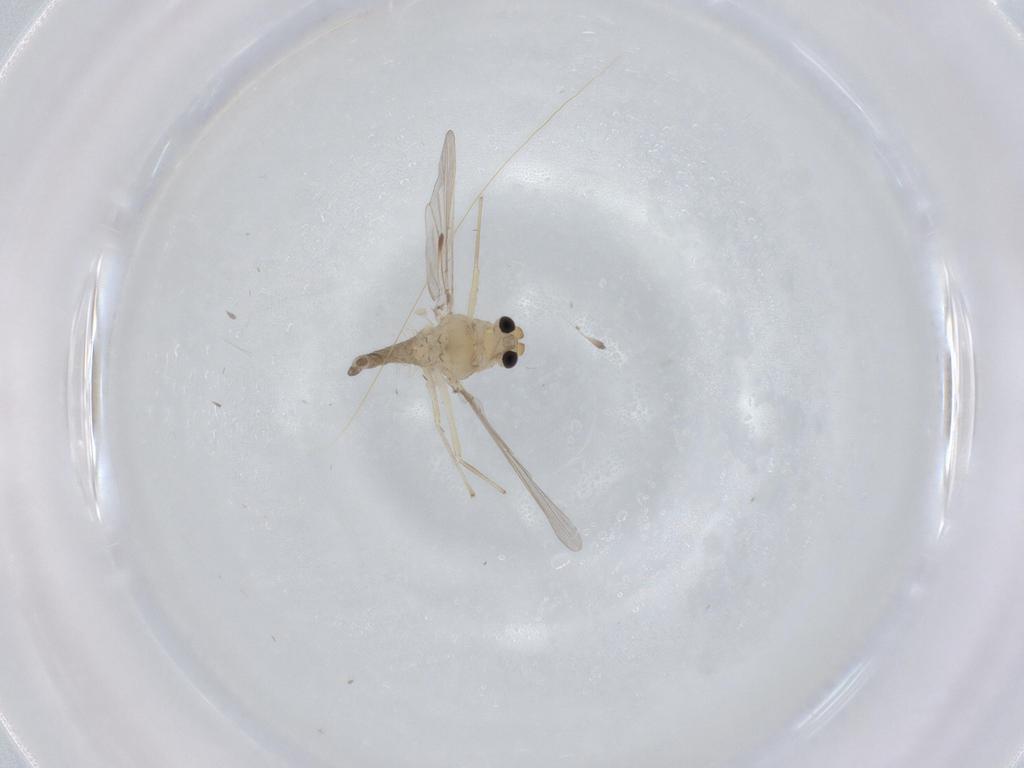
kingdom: Animalia
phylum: Arthropoda
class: Insecta
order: Diptera
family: Chironomidae
